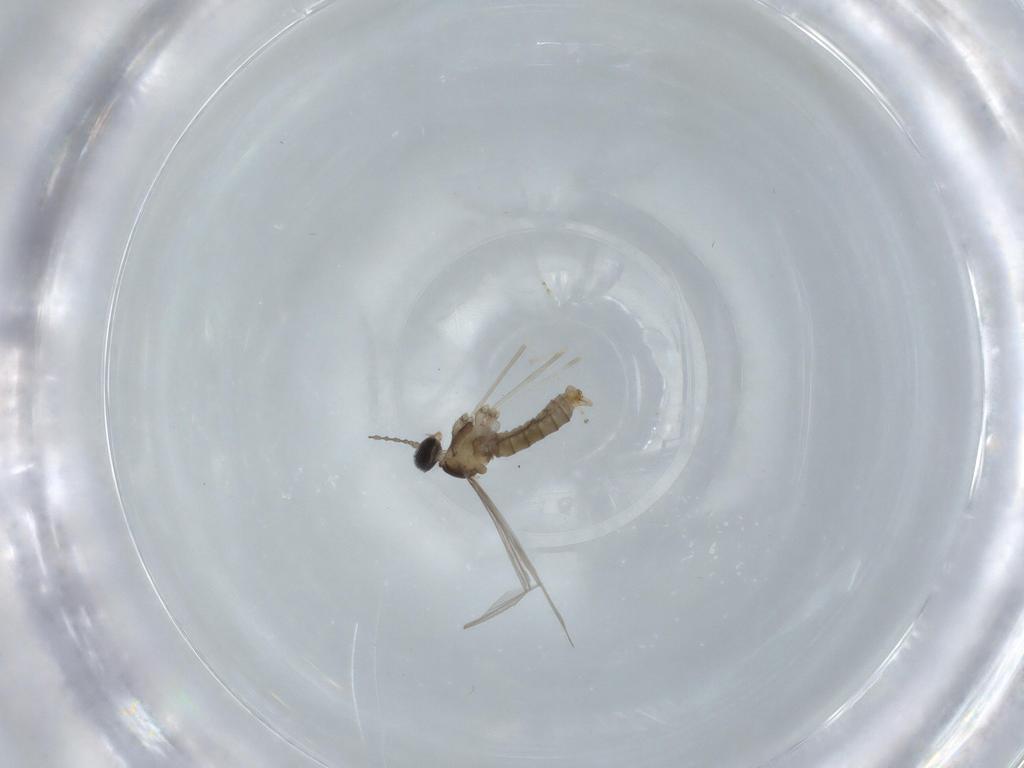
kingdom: Animalia
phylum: Arthropoda
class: Insecta
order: Diptera
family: Cecidomyiidae
